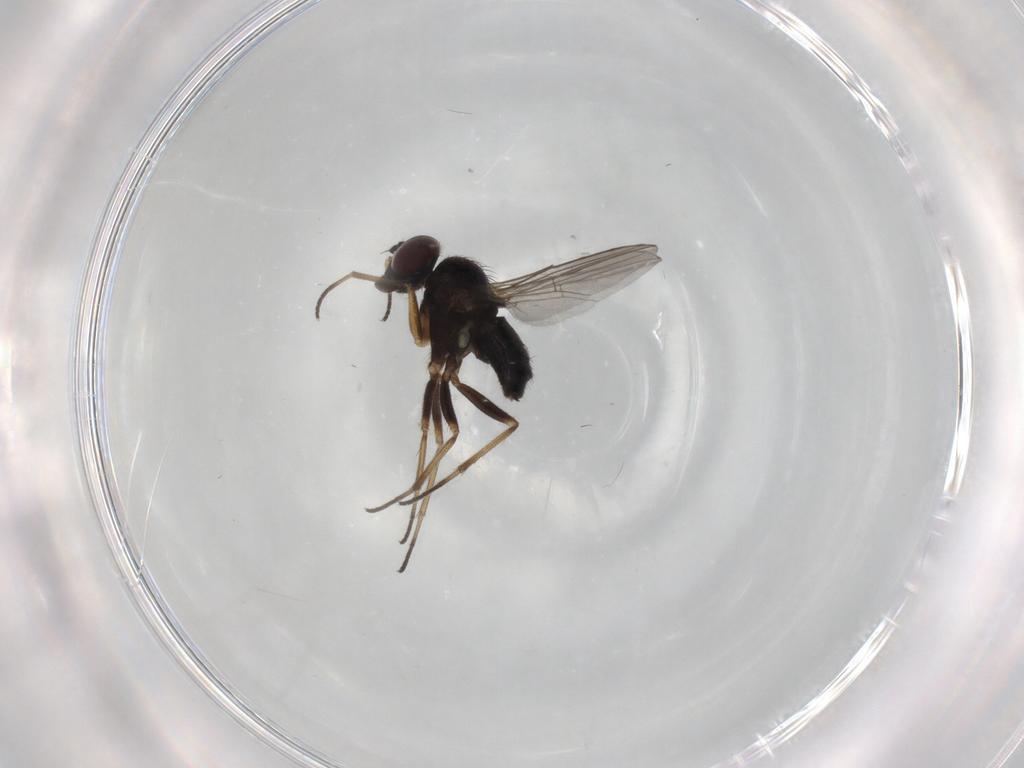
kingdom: Animalia
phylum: Arthropoda
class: Insecta
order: Diptera
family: Dolichopodidae
